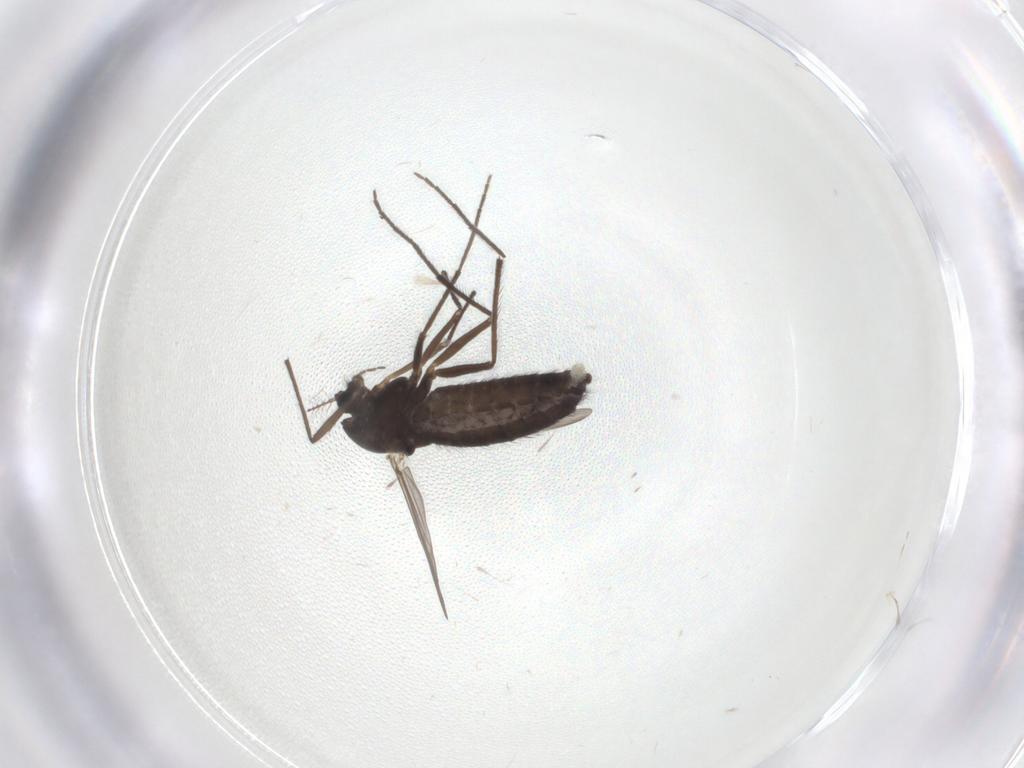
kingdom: Animalia
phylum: Arthropoda
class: Insecta
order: Diptera
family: Chironomidae
